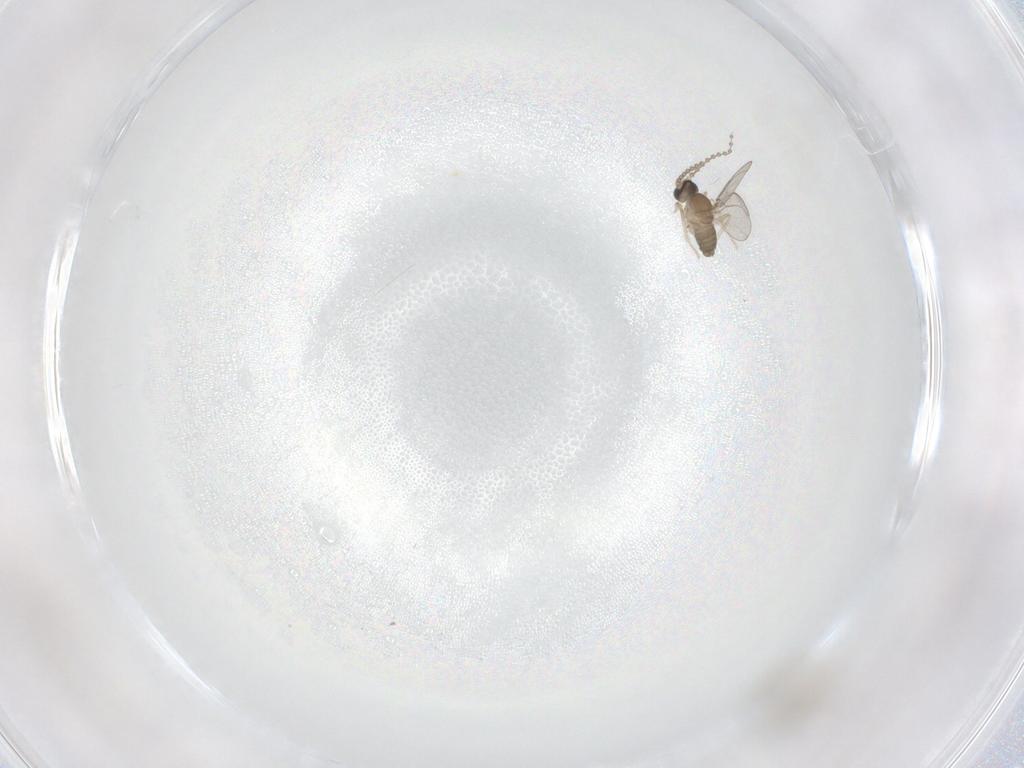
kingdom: Animalia
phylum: Arthropoda
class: Insecta
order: Diptera
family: Cecidomyiidae
